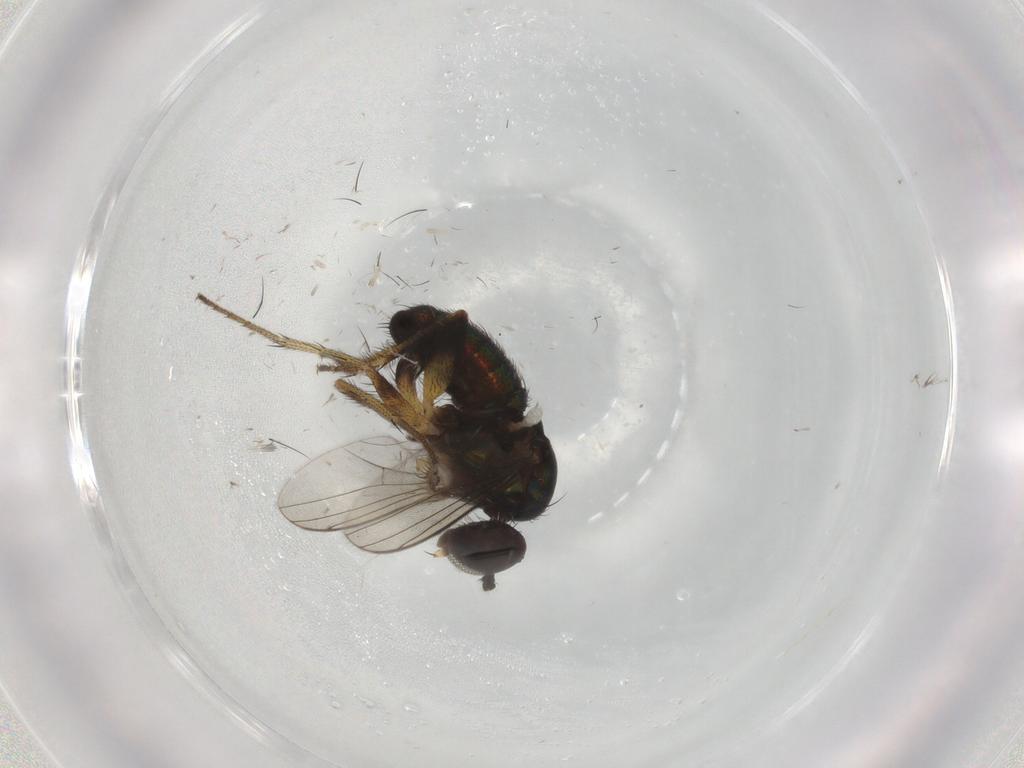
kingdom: Animalia
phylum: Arthropoda
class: Insecta
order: Diptera
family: Dolichopodidae
